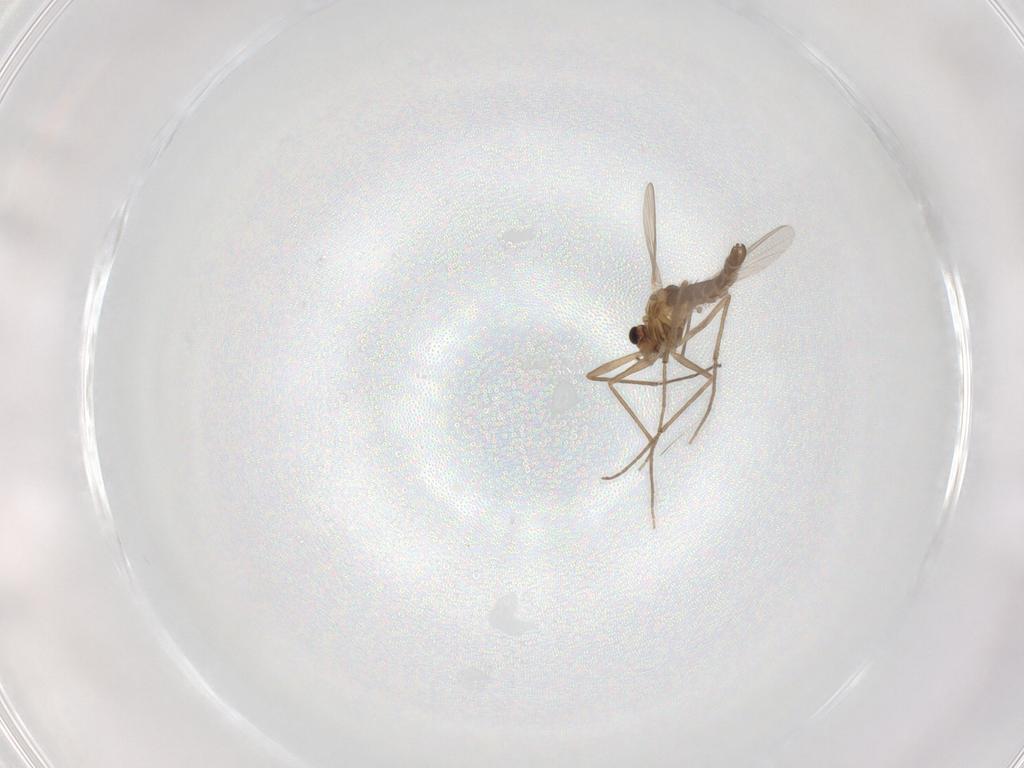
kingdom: Animalia
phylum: Arthropoda
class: Insecta
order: Diptera
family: Chironomidae
